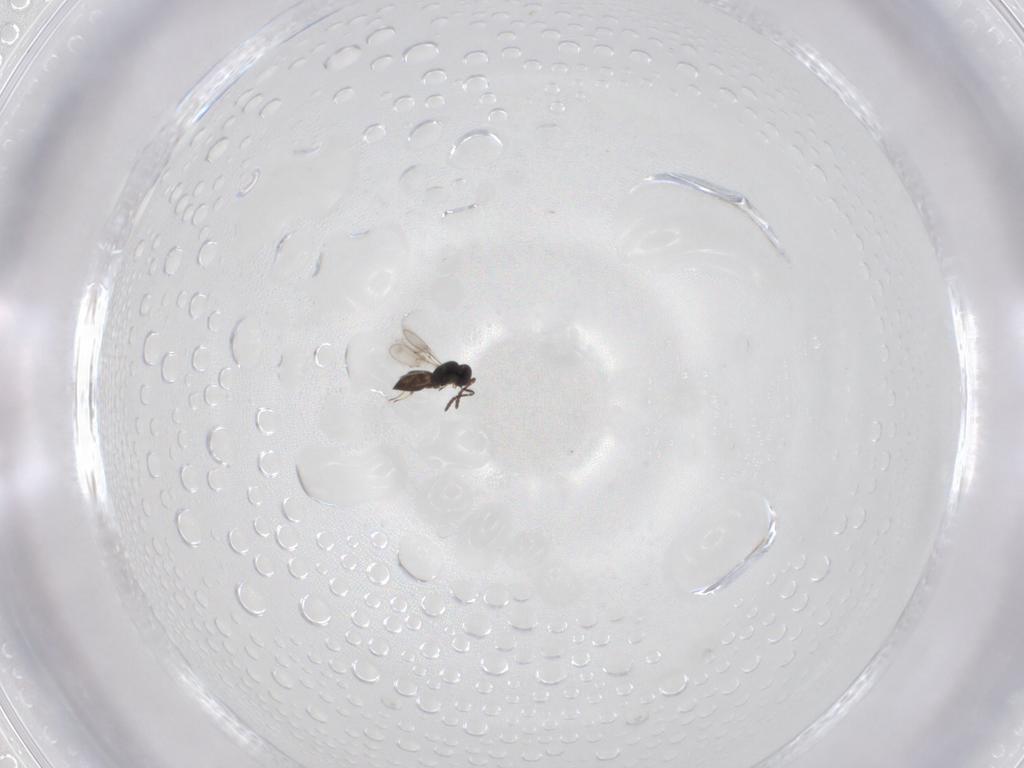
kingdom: Animalia
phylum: Arthropoda
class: Insecta
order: Hymenoptera
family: Scelionidae
